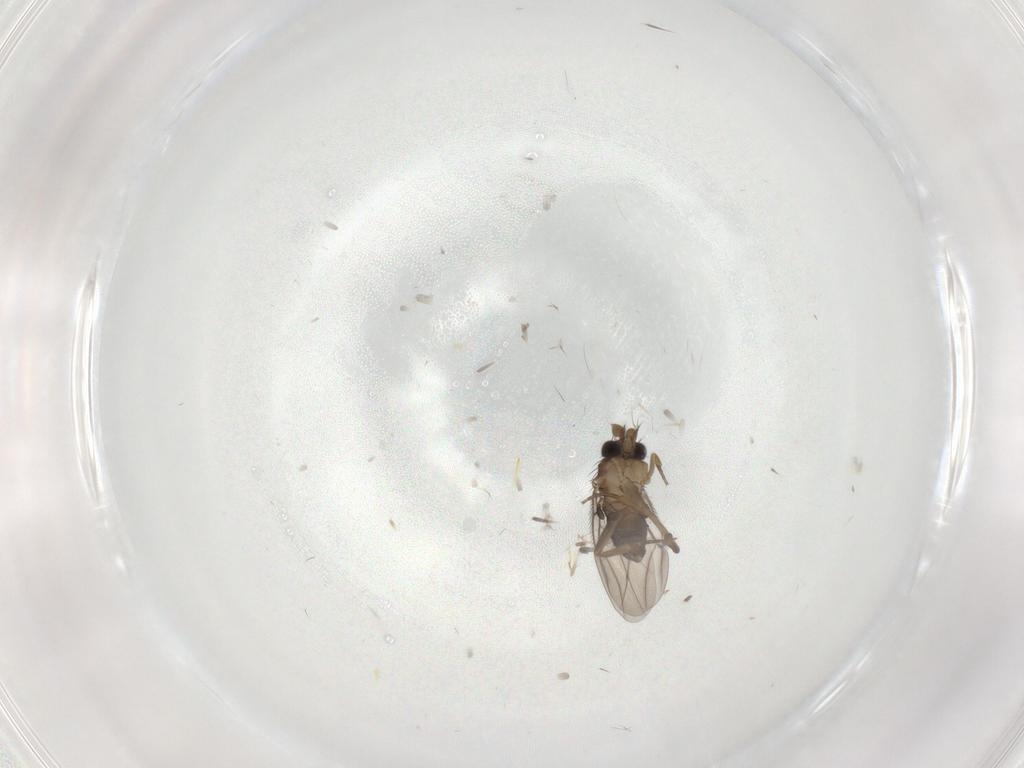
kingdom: Animalia
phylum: Arthropoda
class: Insecta
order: Diptera
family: Phoridae
